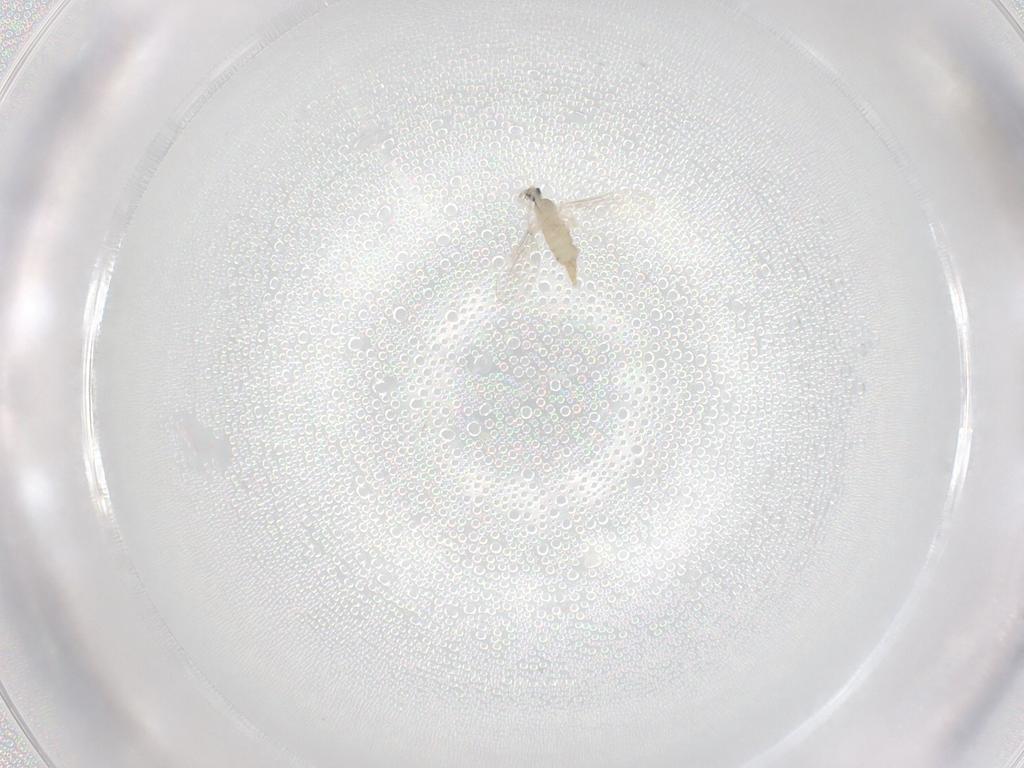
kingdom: Animalia
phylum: Arthropoda
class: Insecta
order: Diptera
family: Cecidomyiidae
